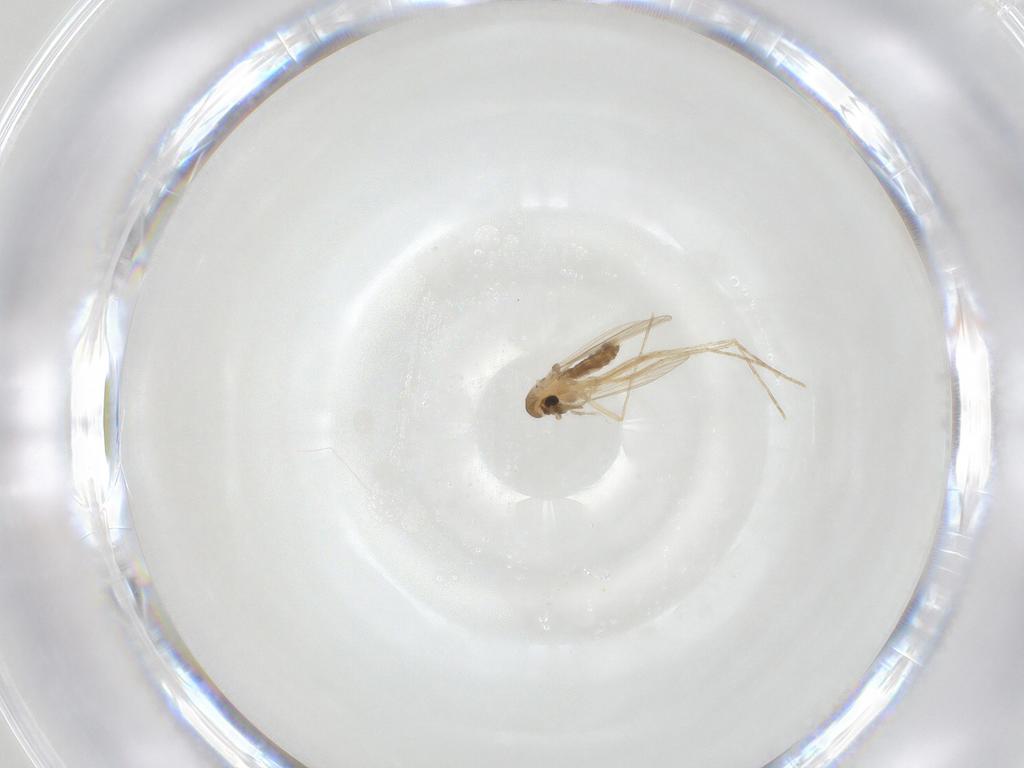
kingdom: Animalia
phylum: Arthropoda
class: Insecta
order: Diptera
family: Psychodidae
